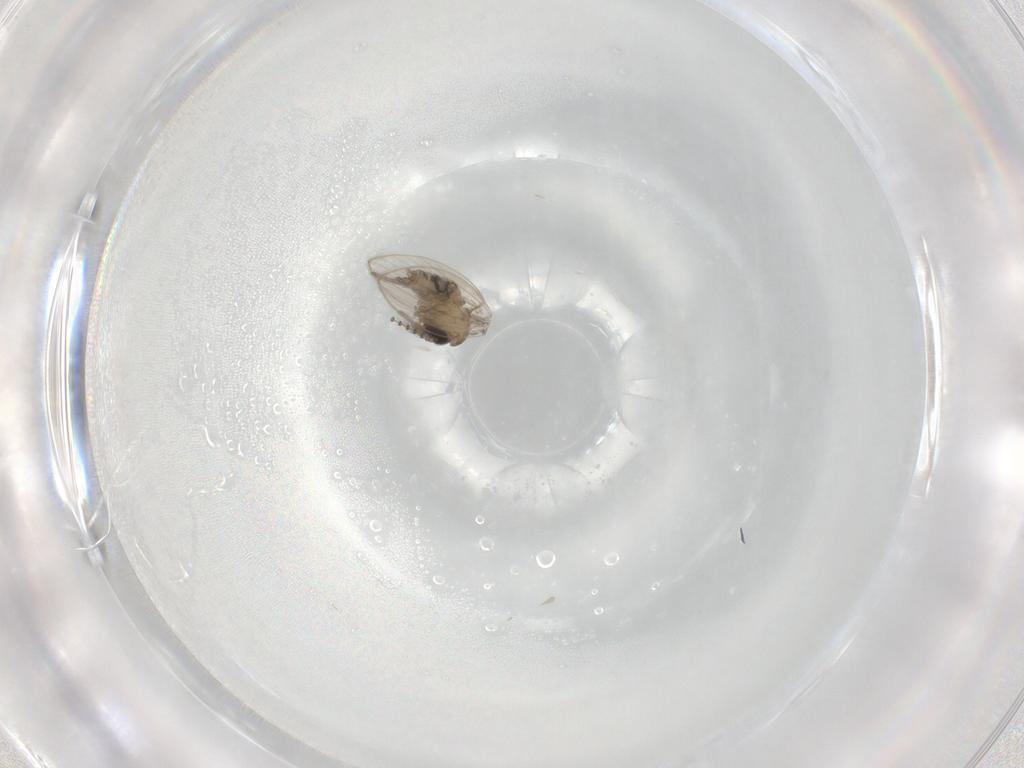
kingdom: Animalia
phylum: Arthropoda
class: Insecta
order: Diptera
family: Psychodidae
